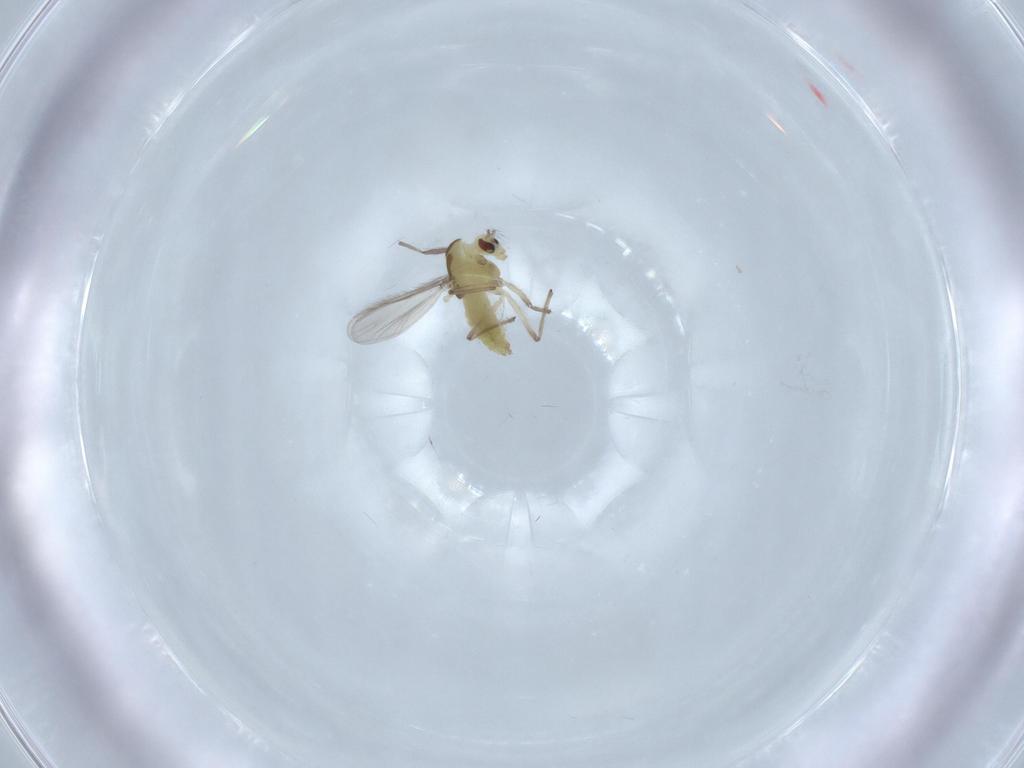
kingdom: Animalia
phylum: Arthropoda
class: Insecta
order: Diptera
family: Chironomidae
